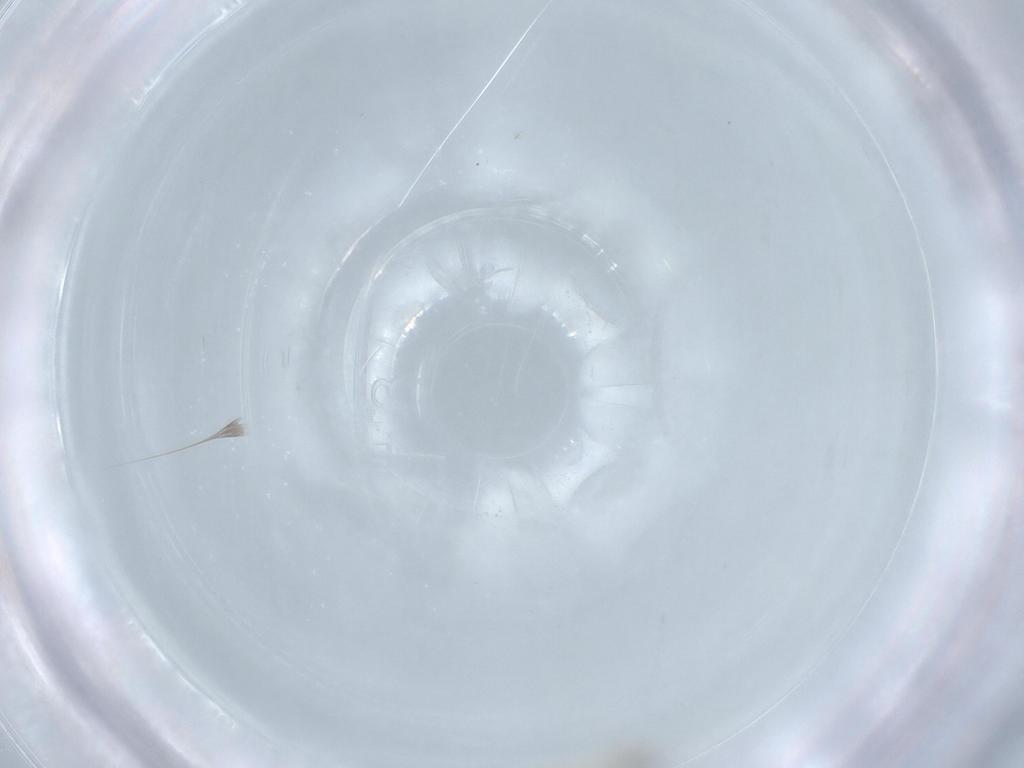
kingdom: Animalia
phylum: Arthropoda
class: Insecta
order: Diptera
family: Cecidomyiidae
